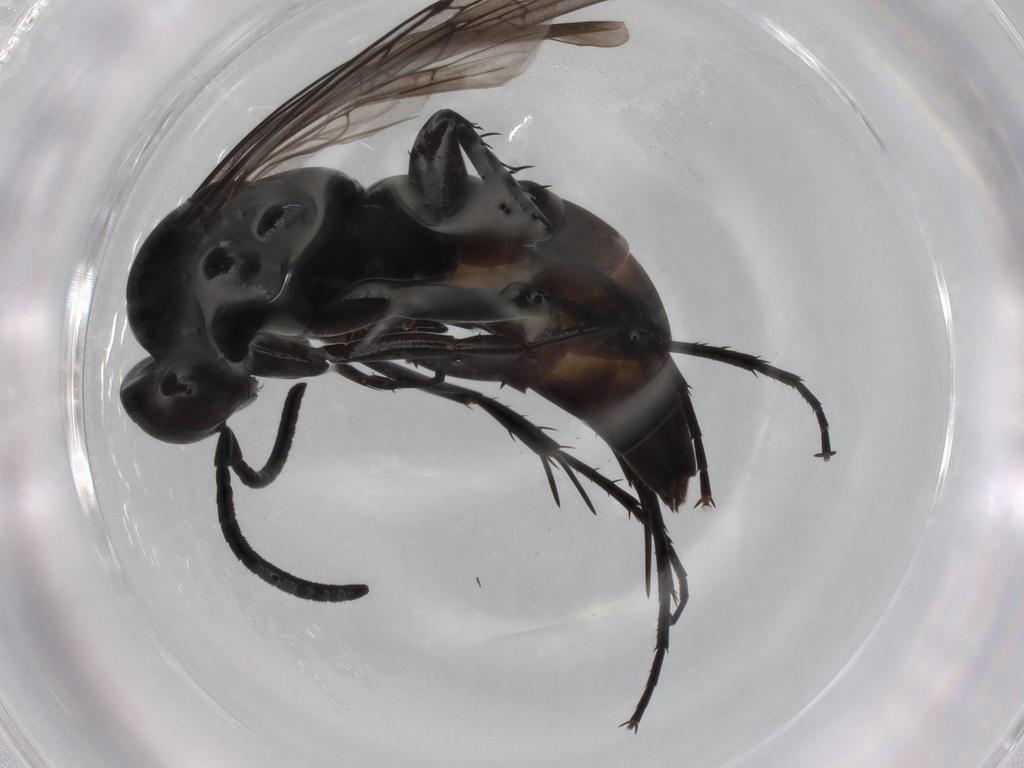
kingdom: Animalia
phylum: Arthropoda
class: Insecta
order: Hymenoptera
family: Pompilidae
